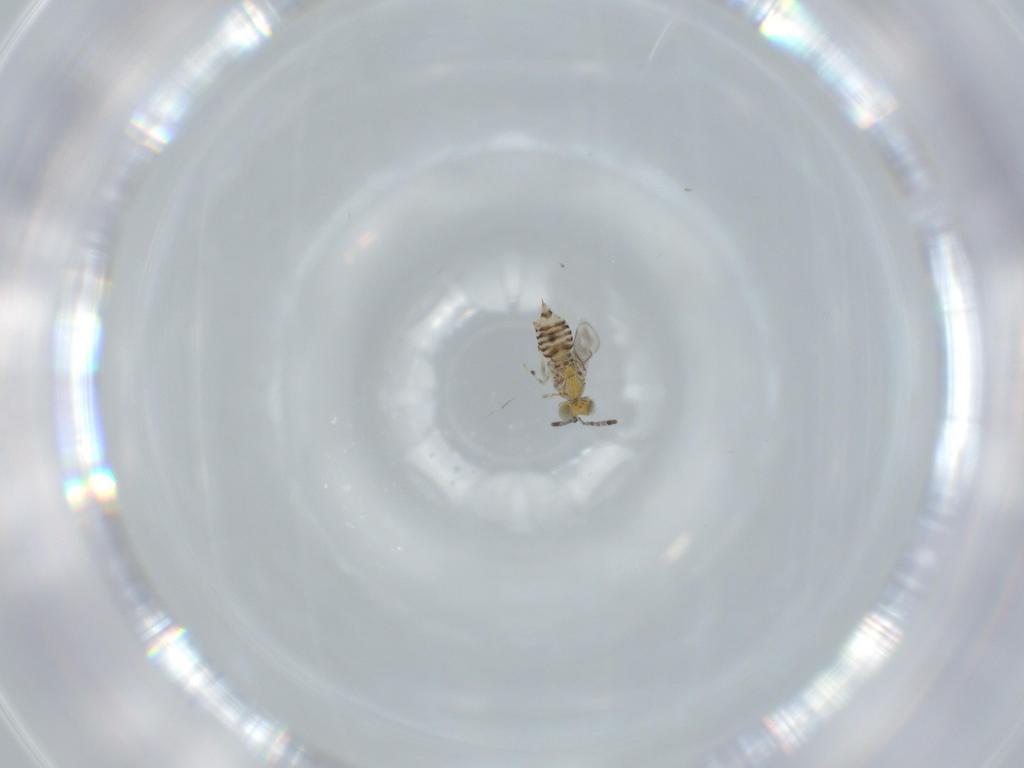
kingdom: Animalia
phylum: Arthropoda
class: Insecta
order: Hymenoptera
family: Aphelinidae
